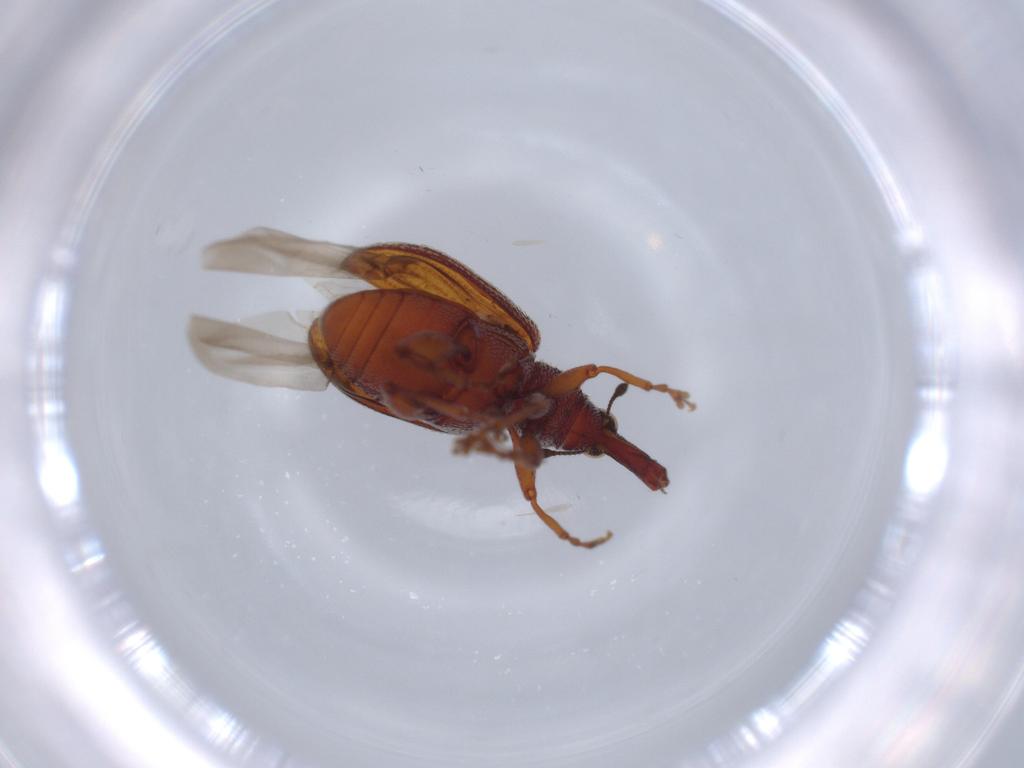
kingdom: Animalia
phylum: Arthropoda
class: Insecta
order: Coleoptera
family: Curculionidae
